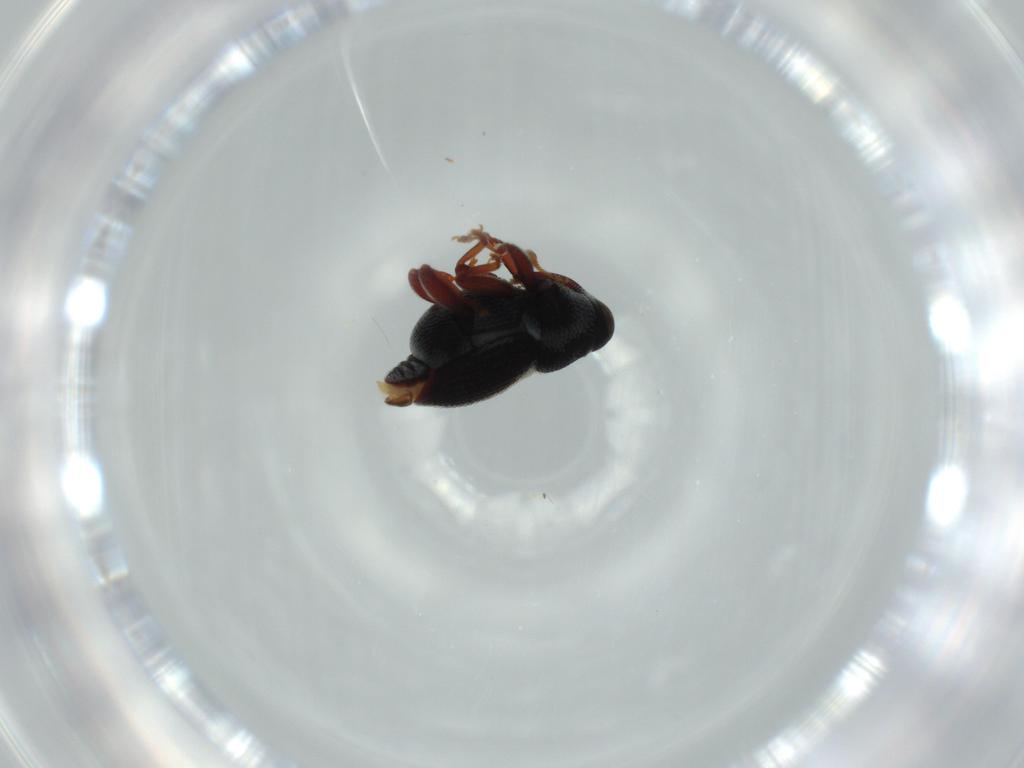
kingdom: Animalia
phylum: Arthropoda
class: Insecta
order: Coleoptera
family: Curculionidae
